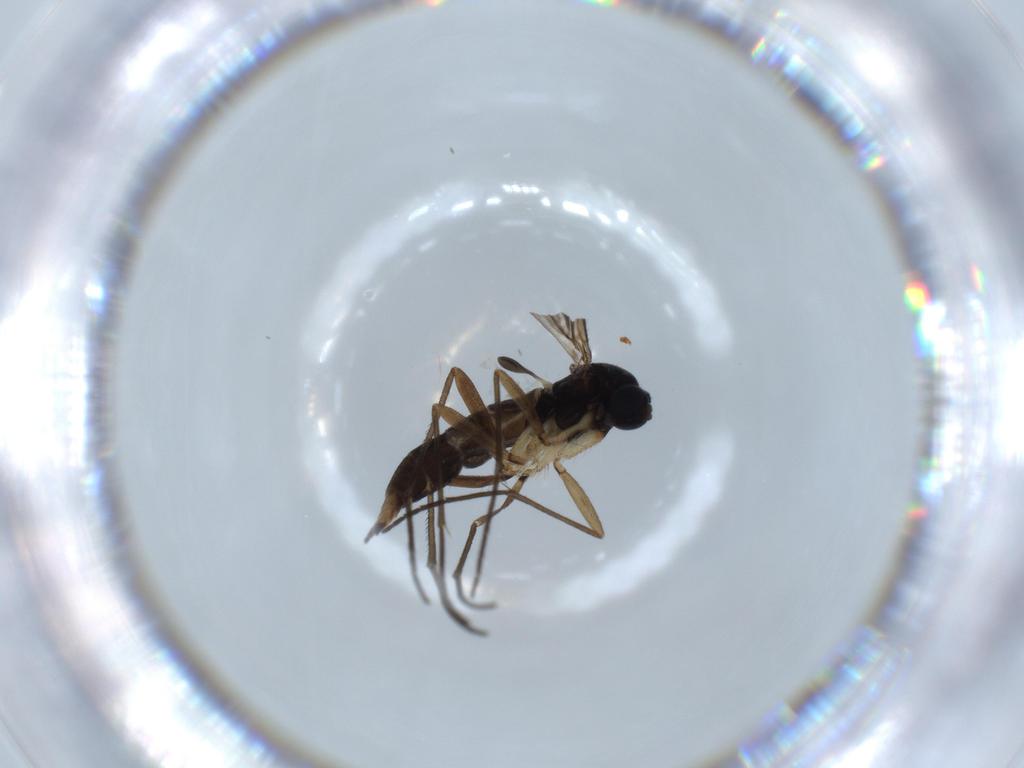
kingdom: Animalia
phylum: Arthropoda
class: Insecta
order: Diptera
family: Sciaridae
